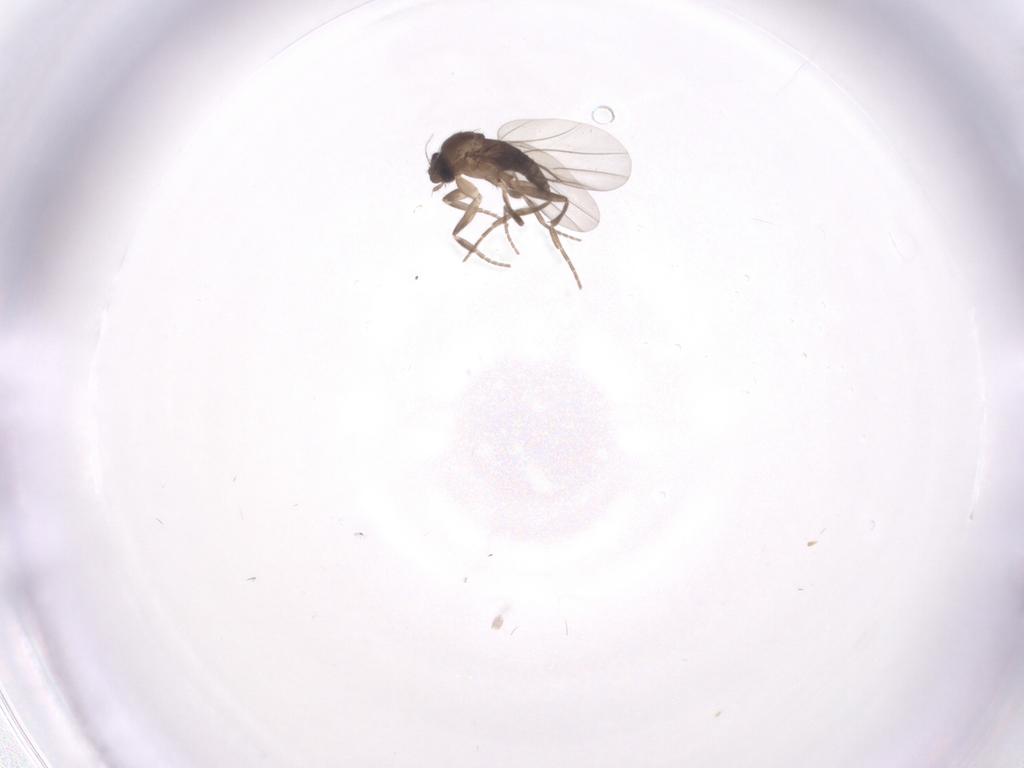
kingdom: Animalia
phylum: Arthropoda
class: Insecta
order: Diptera
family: Phoridae
